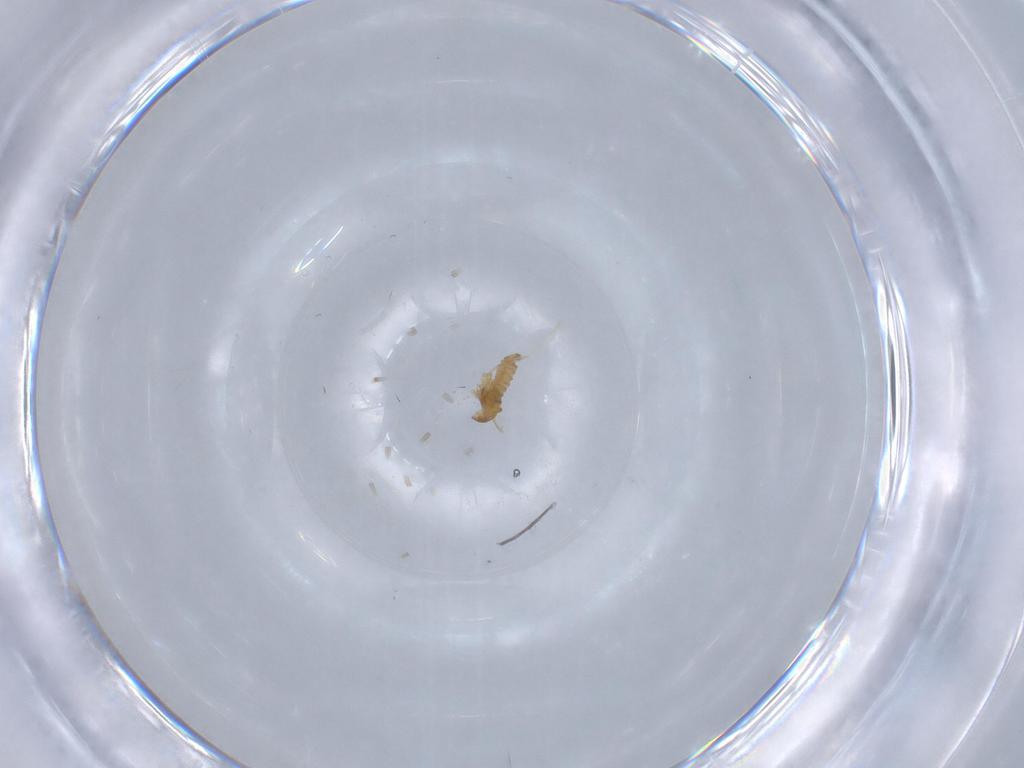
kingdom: Animalia
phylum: Arthropoda
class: Insecta
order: Diptera
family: Cecidomyiidae
